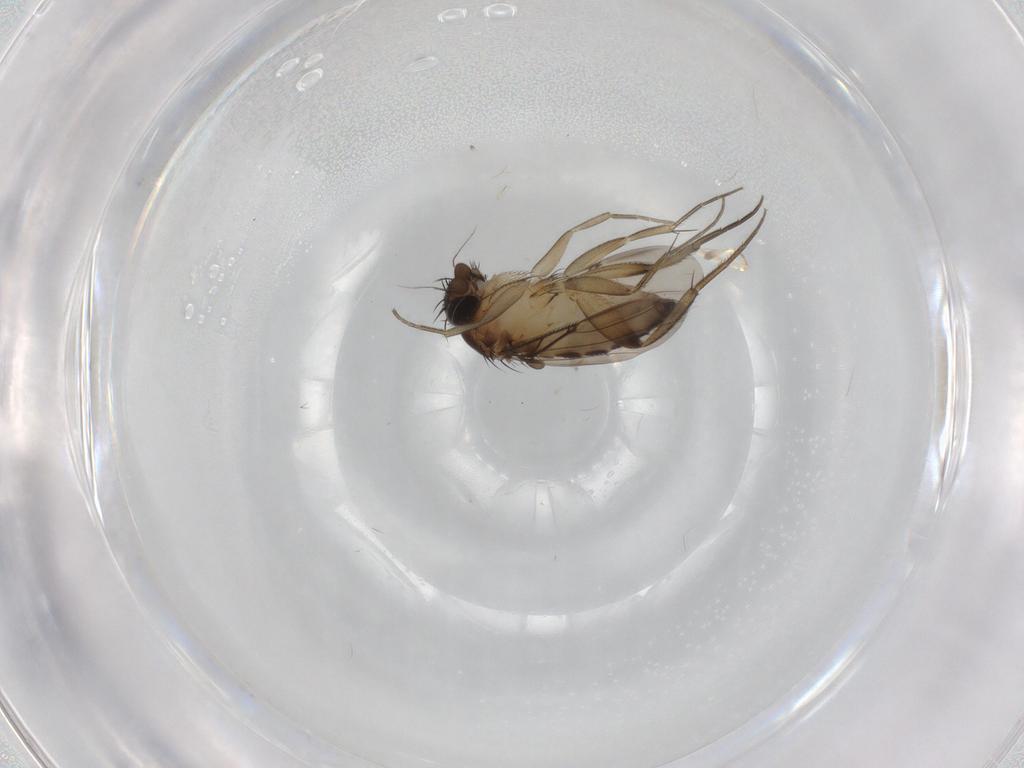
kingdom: Animalia
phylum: Arthropoda
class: Insecta
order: Diptera
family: Phoridae
